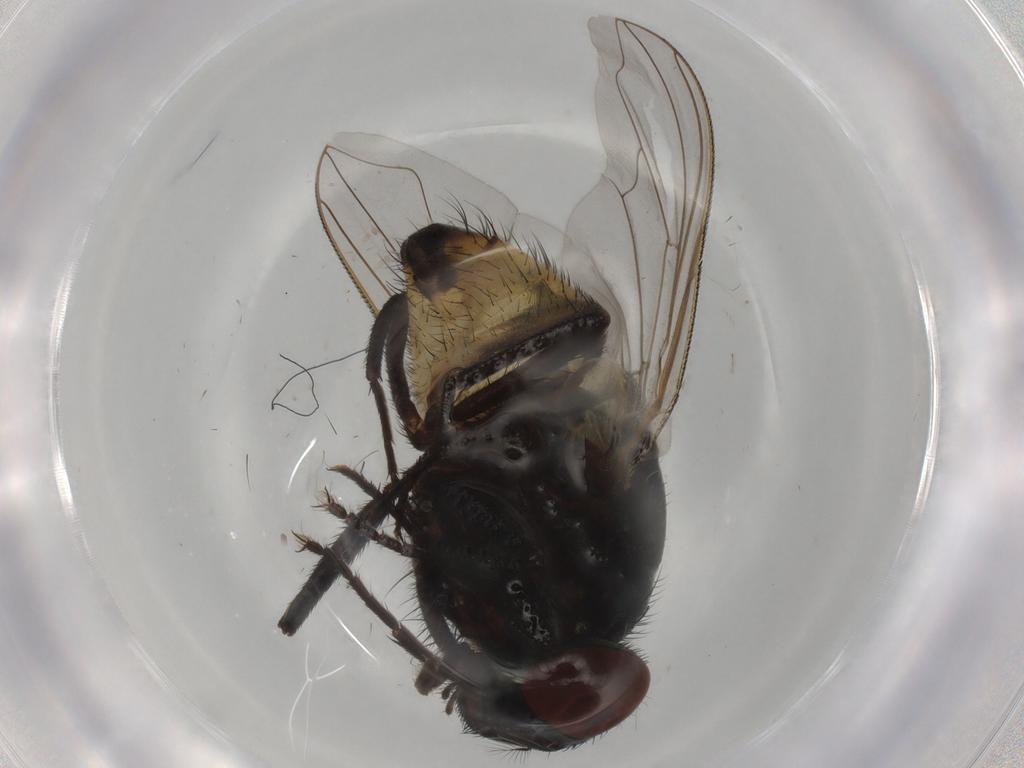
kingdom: Animalia
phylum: Arthropoda
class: Insecta
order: Diptera
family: Muscidae
